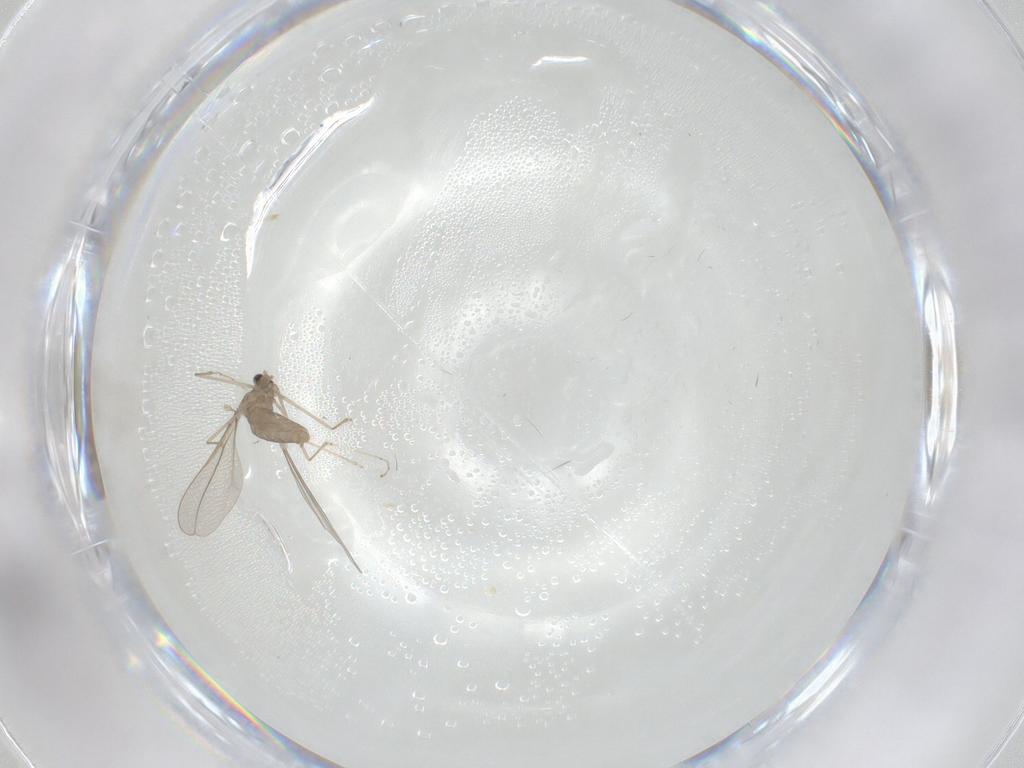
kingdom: Animalia
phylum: Arthropoda
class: Insecta
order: Diptera
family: Cecidomyiidae
